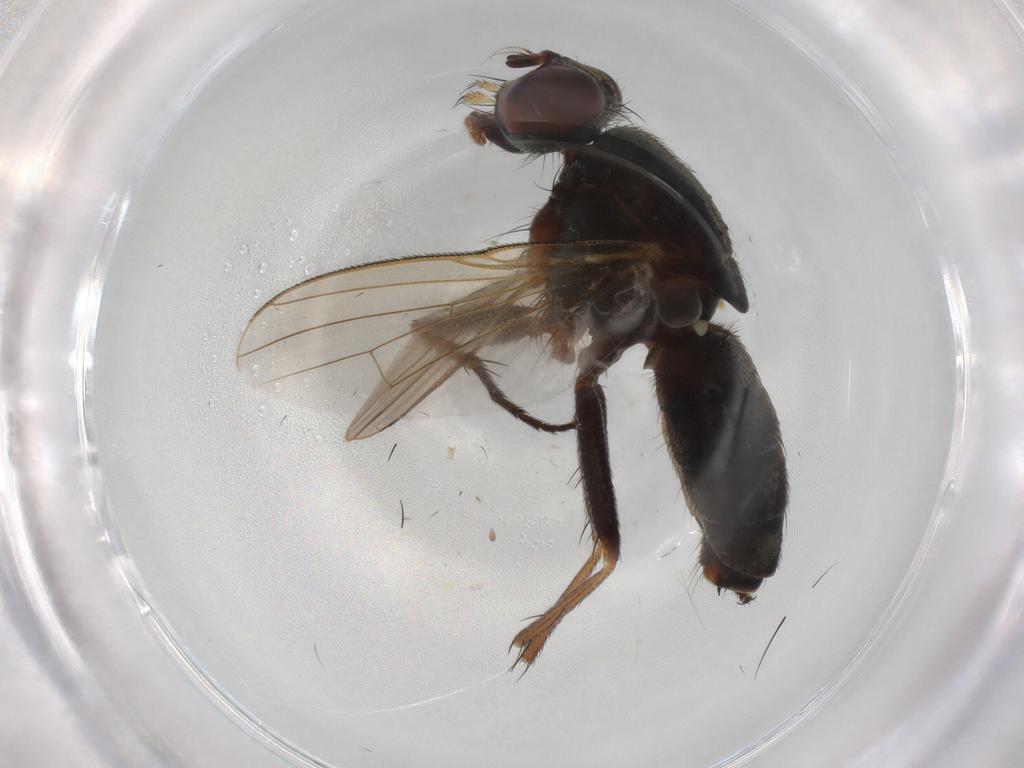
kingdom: Animalia
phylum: Arthropoda
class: Insecta
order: Diptera
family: Muscidae
